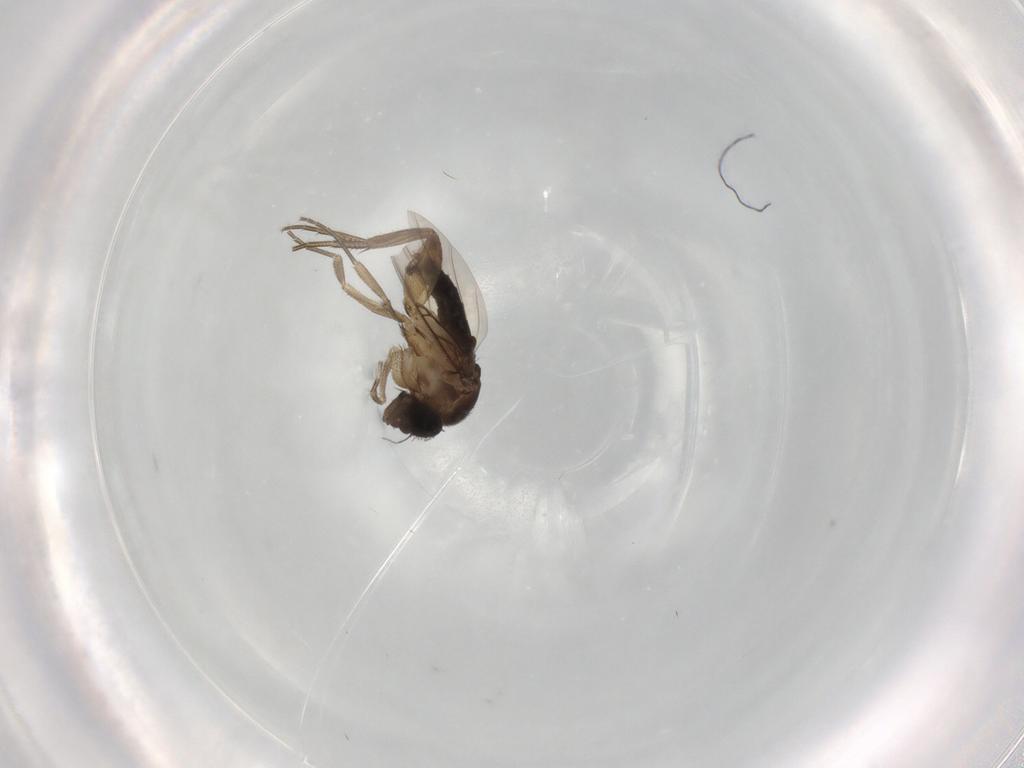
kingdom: Animalia
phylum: Arthropoda
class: Insecta
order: Diptera
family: Phoridae
